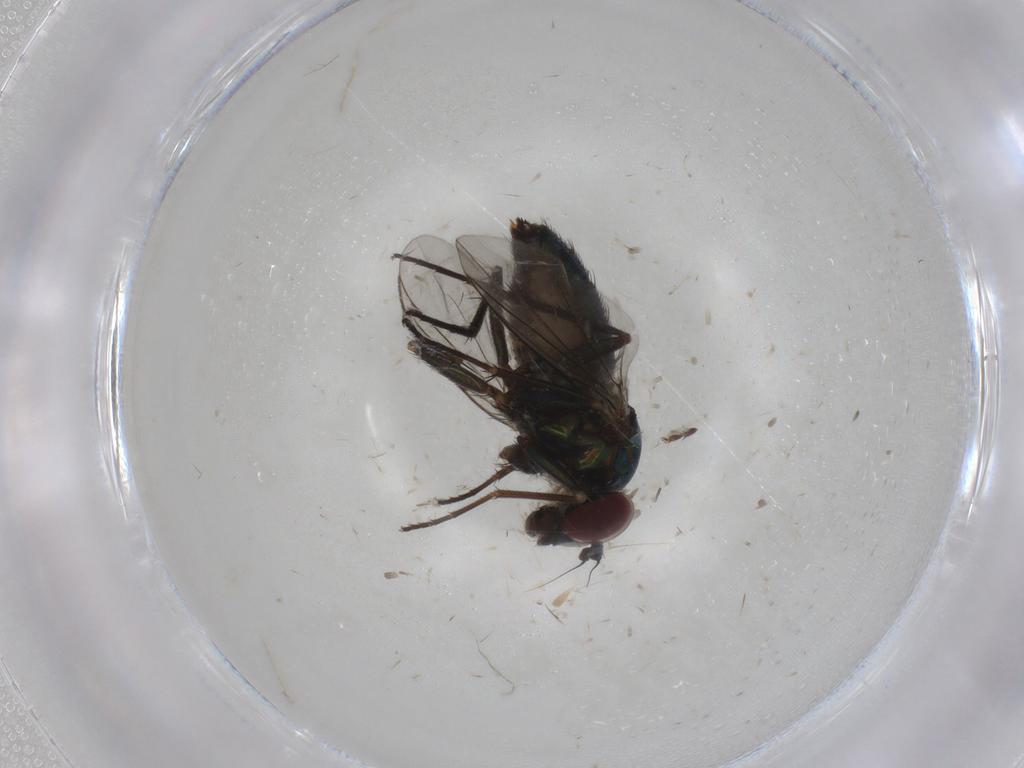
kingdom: Animalia
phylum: Arthropoda
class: Insecta
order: Diptera
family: Dolichopodidae
